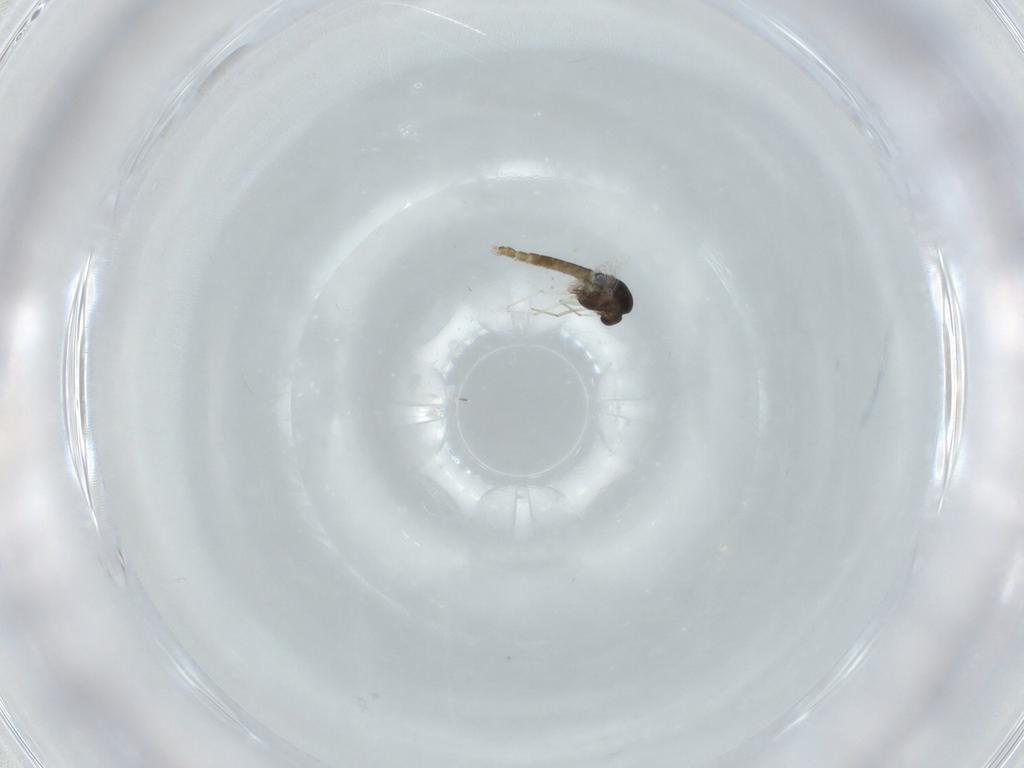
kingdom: Animalia
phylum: Arthropoda
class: Insecta
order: Diptera
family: Chironomidae
